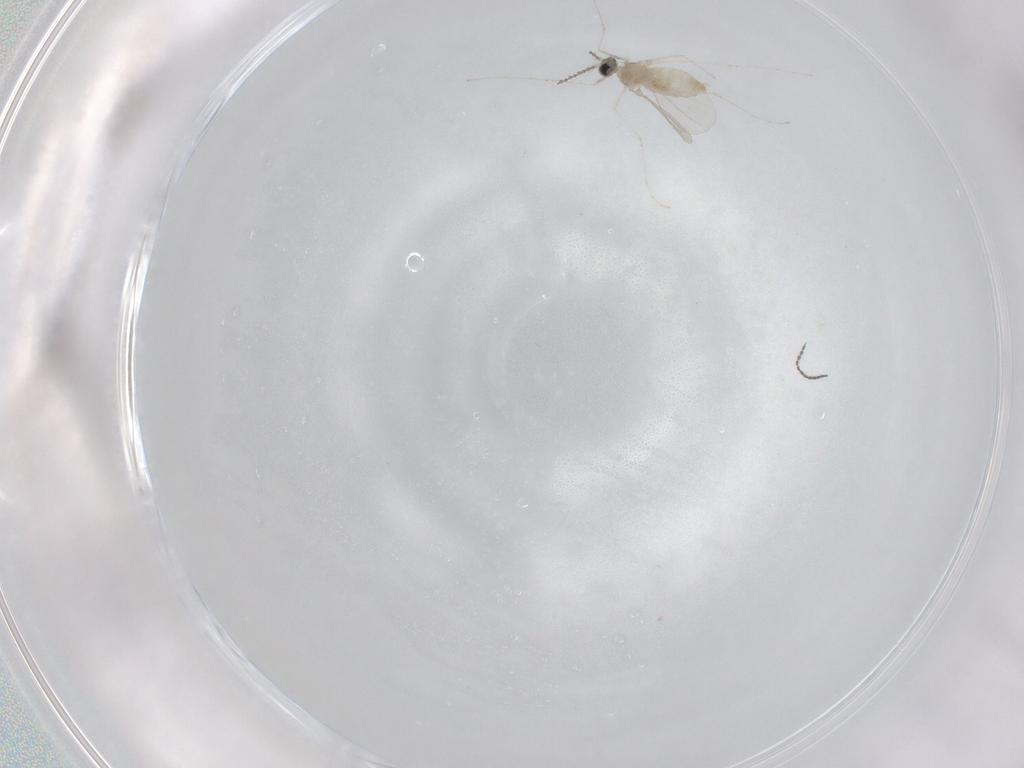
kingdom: Animalia
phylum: Arthropoda
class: Insecta
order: Diptera
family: Cecidomyiidae
